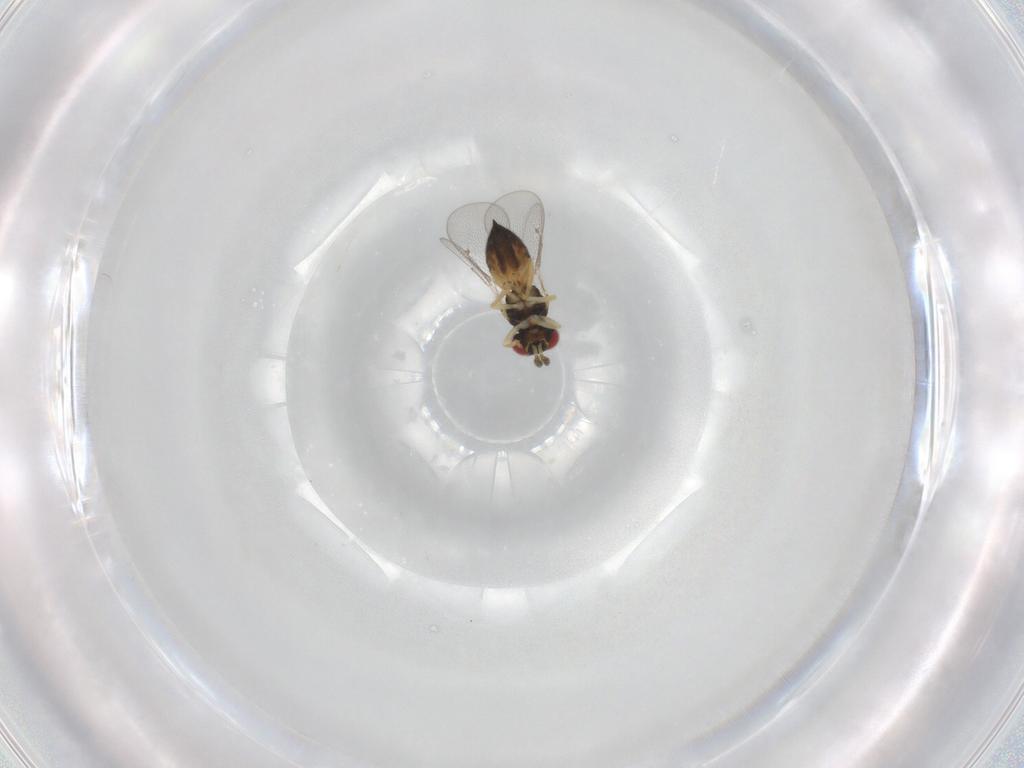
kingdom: Animalia
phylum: Arthropoda
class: Insecta
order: Hymenoptera
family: Eulophidae
